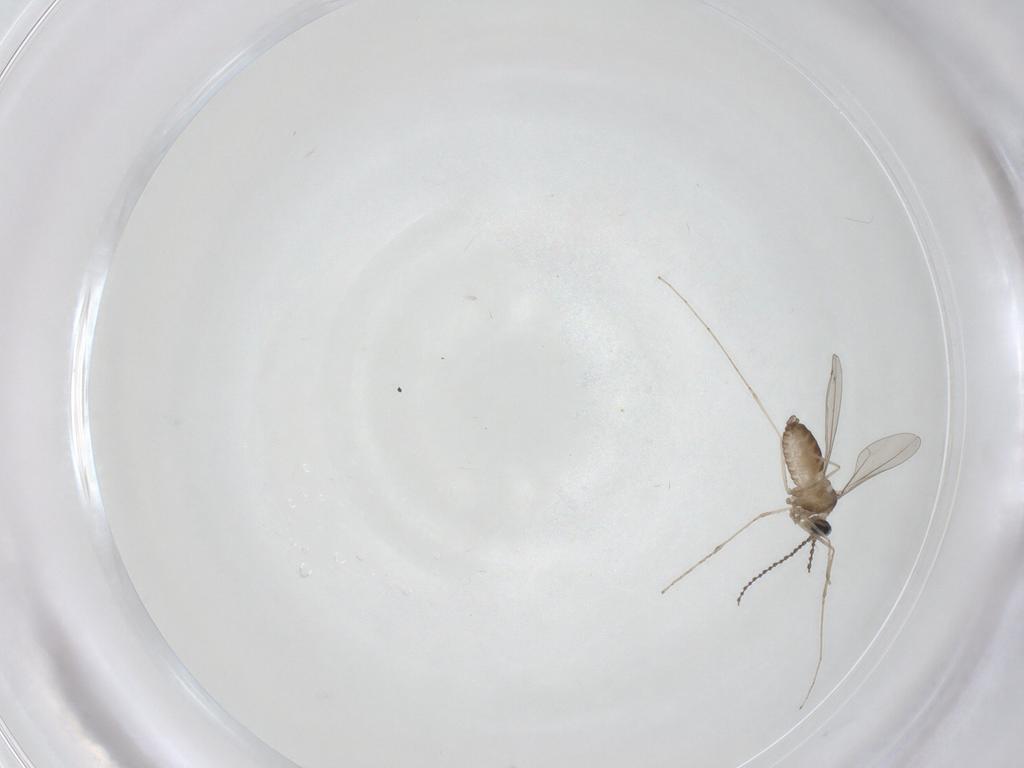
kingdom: Animalia
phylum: Arthropoda
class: Insecta
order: Diptera
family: Cecidomyiidae
